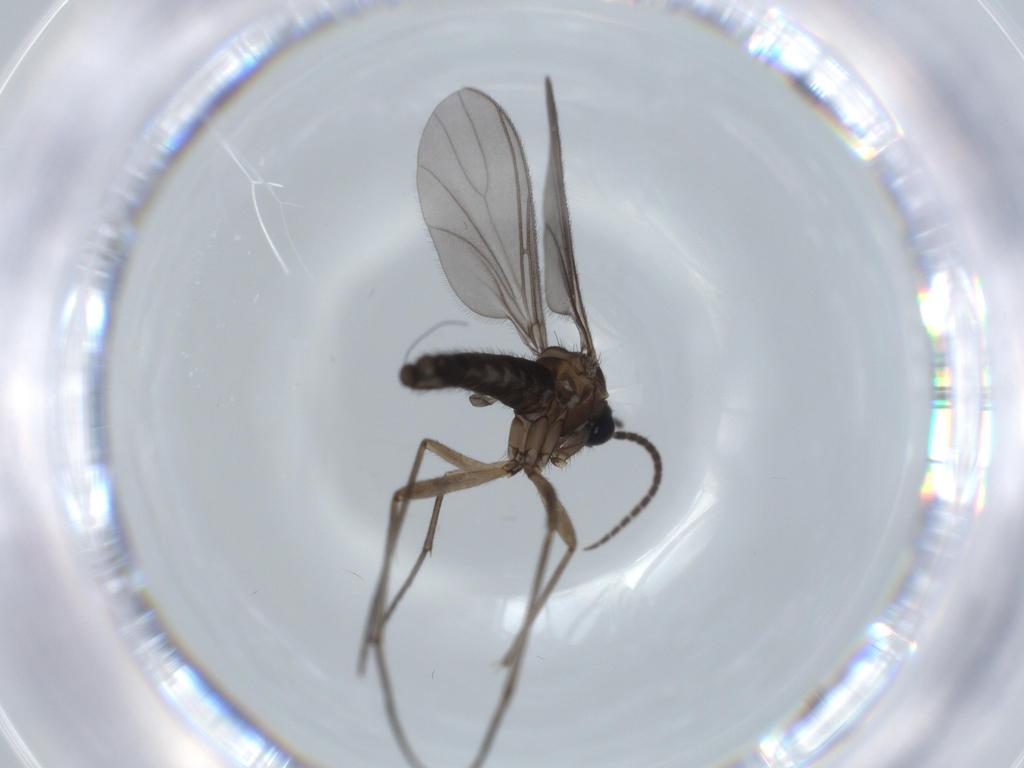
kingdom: Animalia
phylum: Arthropoda
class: Insecta
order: Diptera
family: Sciaridae
